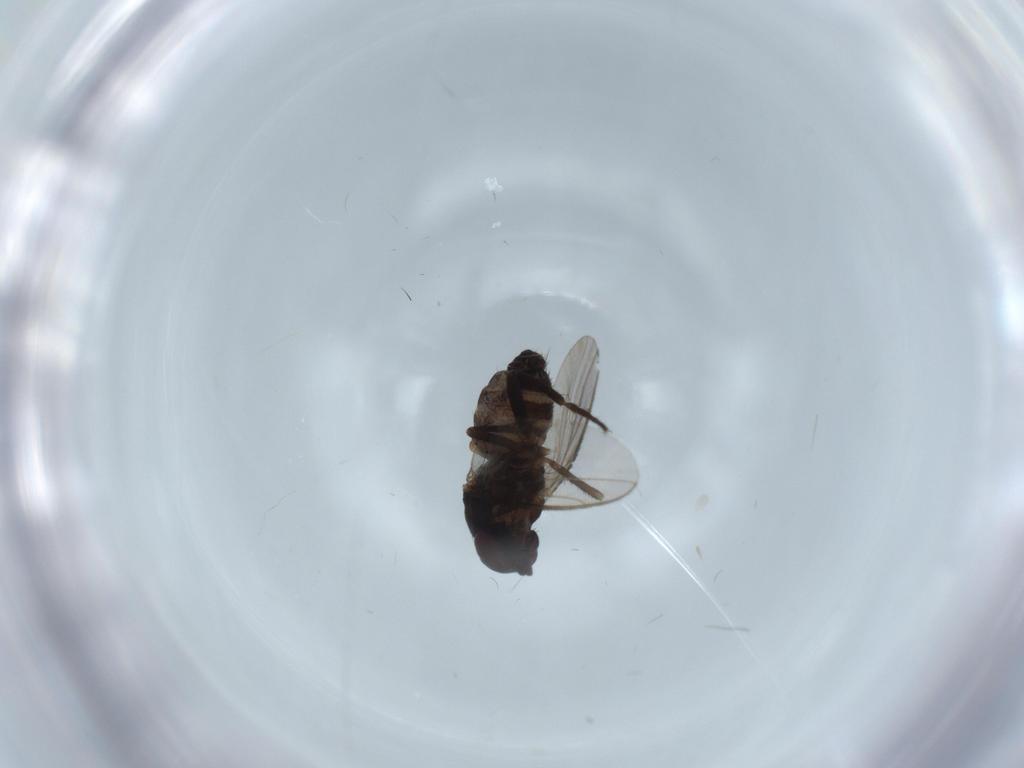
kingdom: Animalia
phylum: Arthropoda
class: Insecta
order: Diptera
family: Sphaeroceridae
